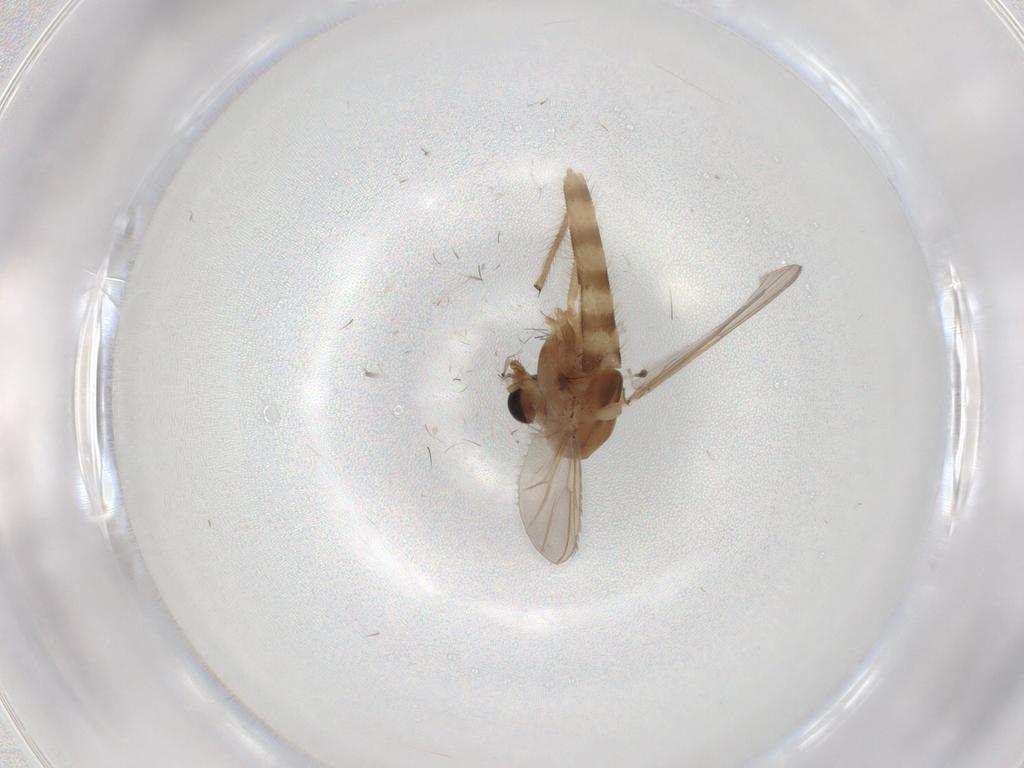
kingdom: Animalia
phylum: Arthropoda
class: Insecta
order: Diptera
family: Chironomidae
